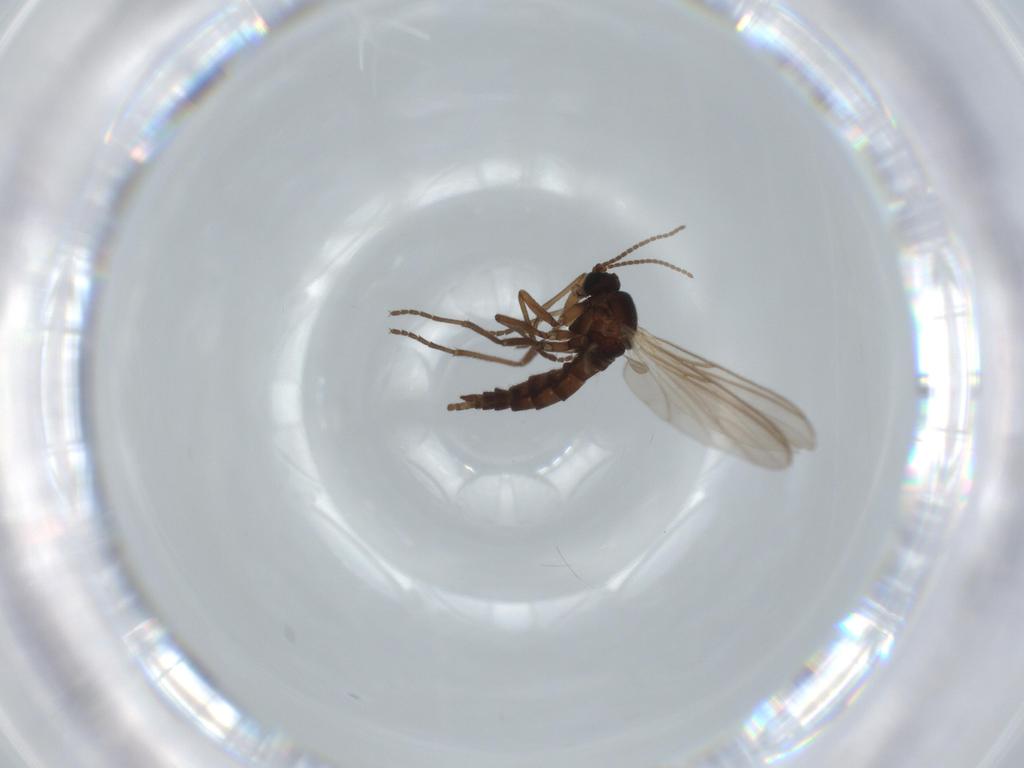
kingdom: Animalia
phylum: Arthropoda
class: Insecta
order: Diptera
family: Sciaridae
